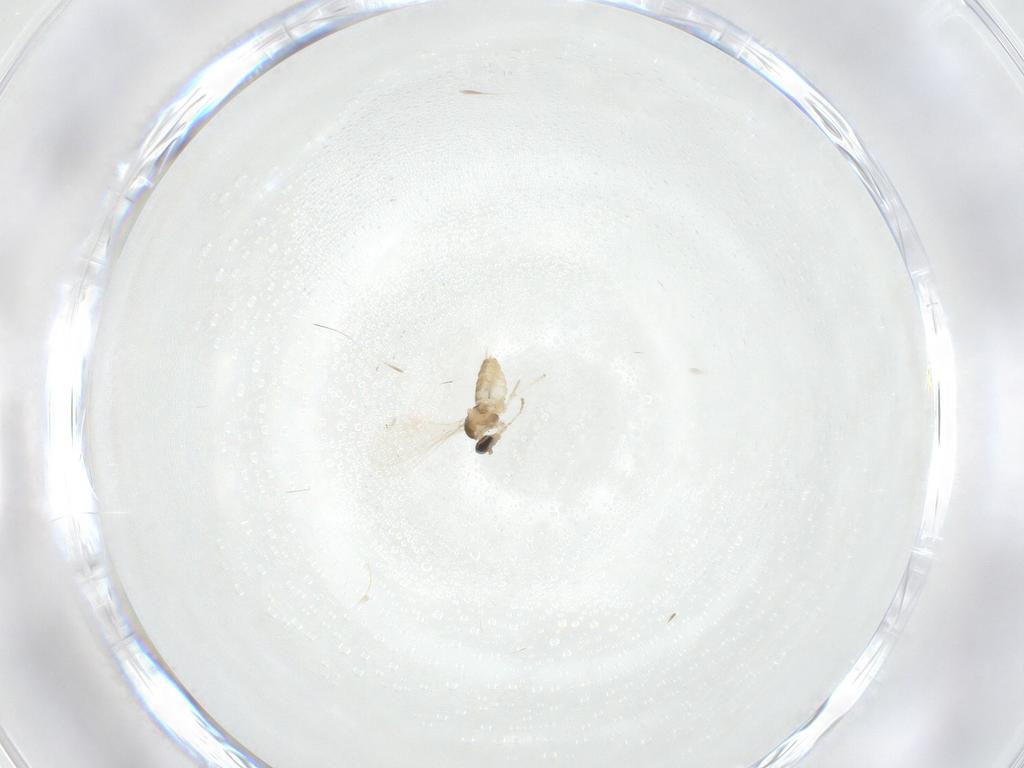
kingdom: Animalia
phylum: Arthropoda
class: Insecta
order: Diptera
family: Cecidomyiidae
